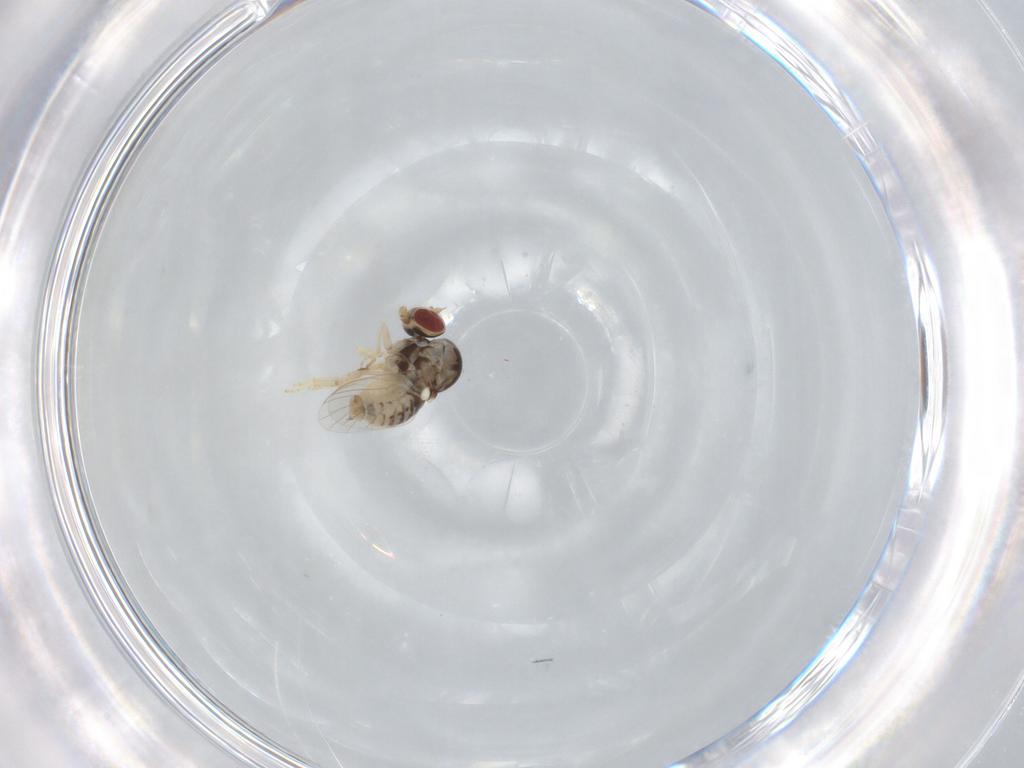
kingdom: Animalia
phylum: Arthropoda
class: Insecta
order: Diptera
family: Bombyliidae
